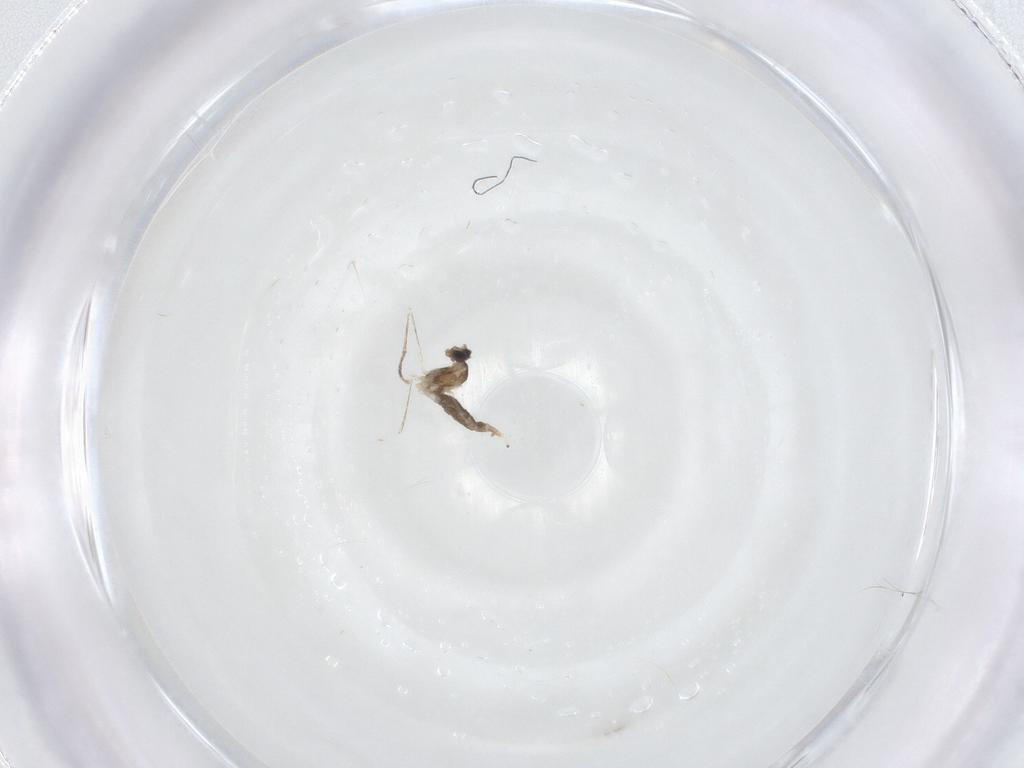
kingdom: Animalia
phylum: Arthropoda
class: Insecta
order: Diptera
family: Cecidomyiidae
